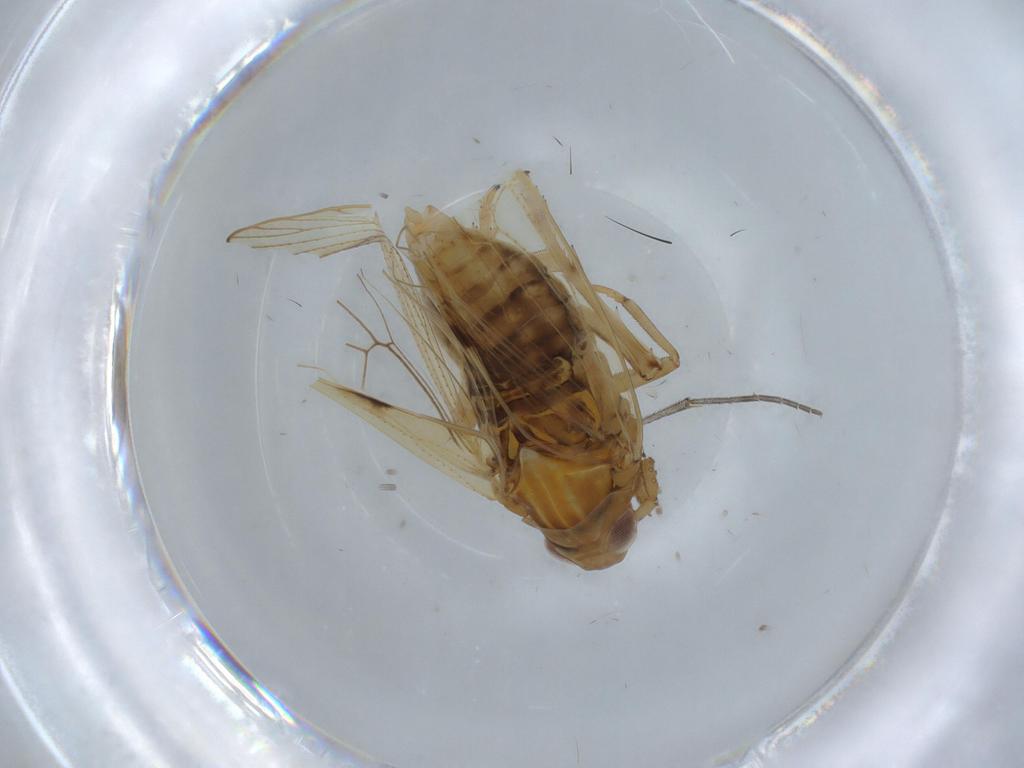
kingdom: Animalia
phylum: Arthropoda
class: Insecta
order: Hemiptera
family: Delphacidae
